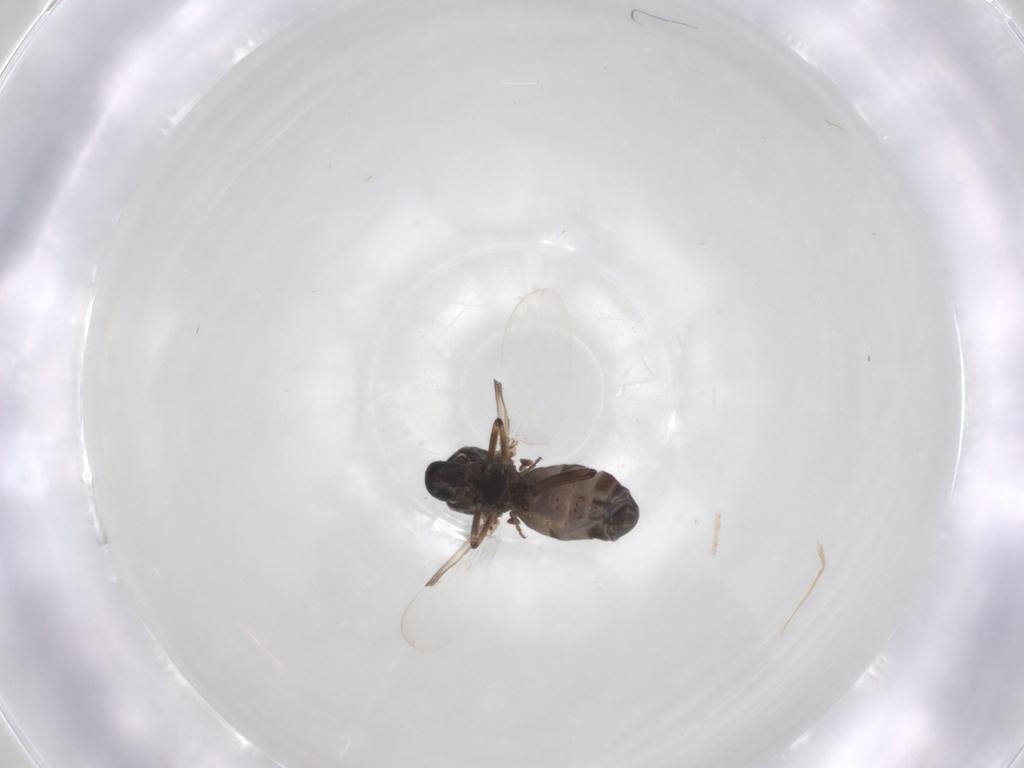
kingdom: Animalia
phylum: Arthropoda
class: Insecta
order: Diptera
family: Ceratopogonidae
